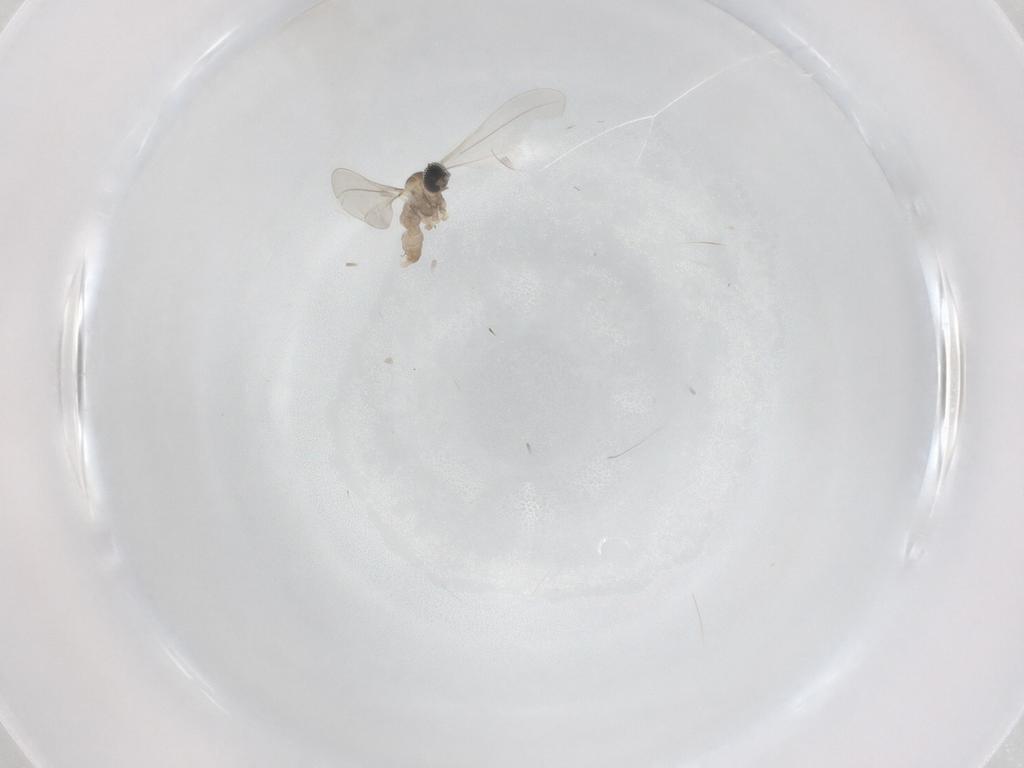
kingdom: Animalia
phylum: Arthropoda
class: Insecta
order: Diptera
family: Cecidomyiidae
